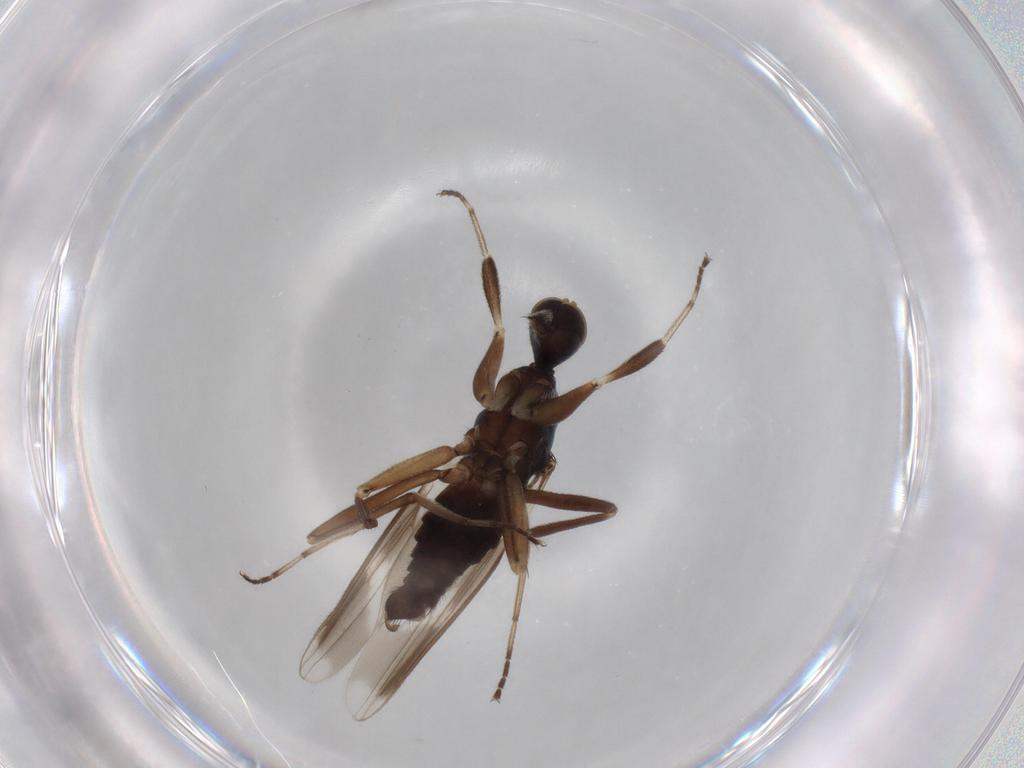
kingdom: Animalia
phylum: Arthropoda
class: Insecta
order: Diptera
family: Hybotidae
